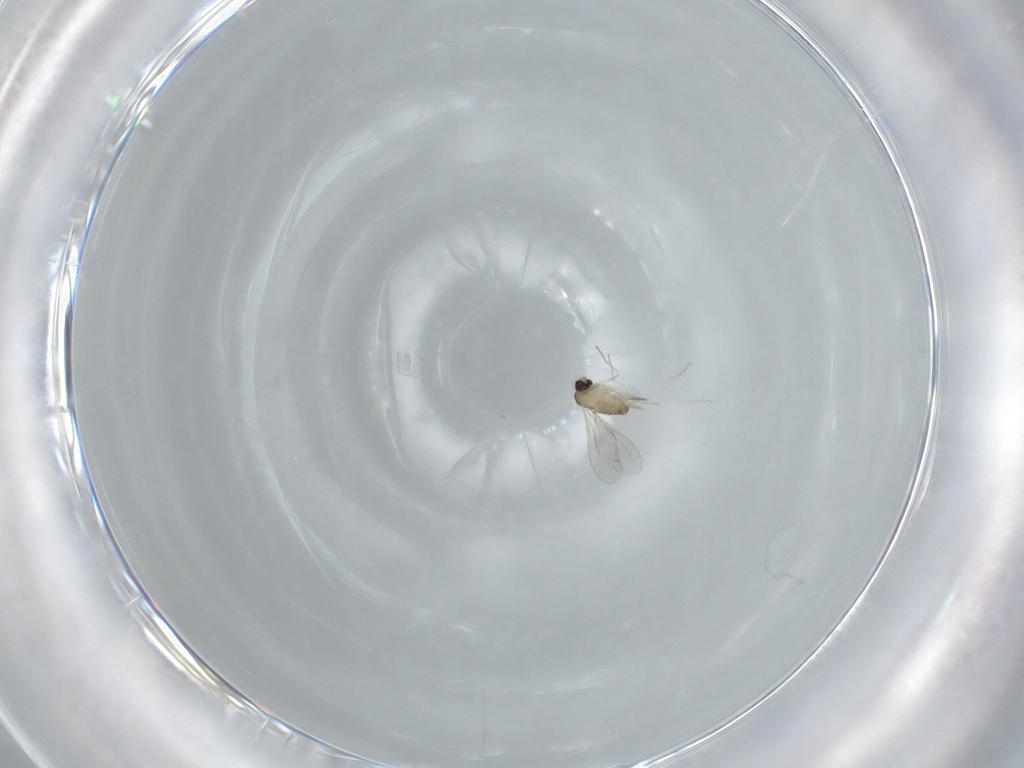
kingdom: Animalia
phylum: Arthropoda
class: Insecta
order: Diptera
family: Cecidomyiidae
